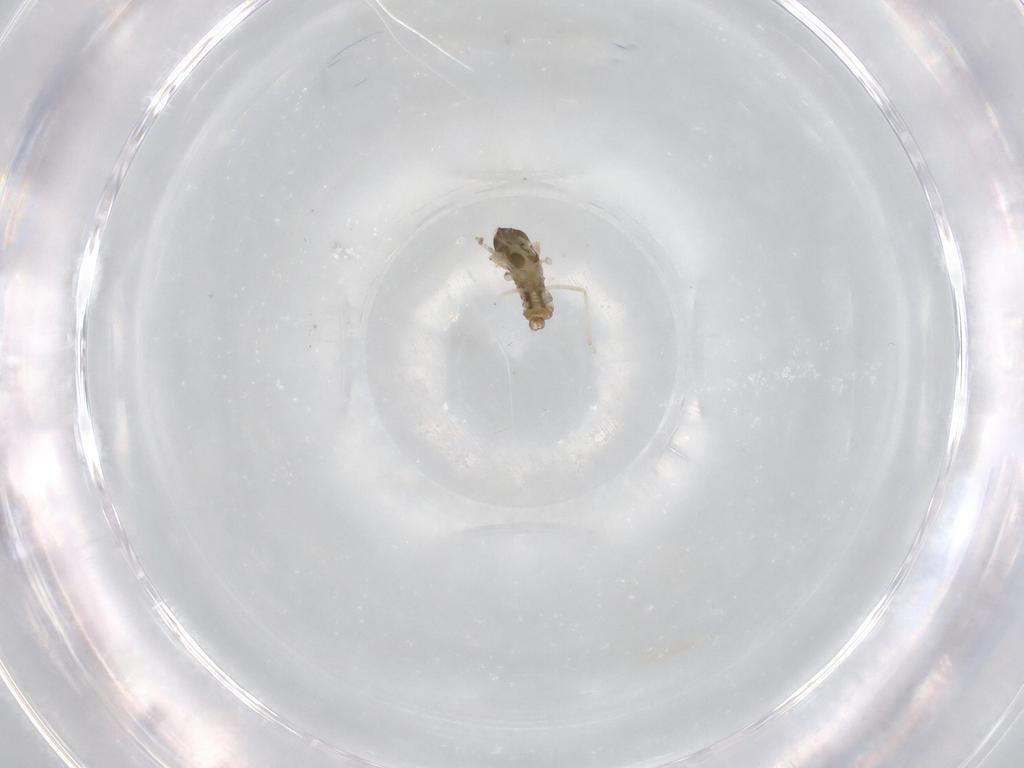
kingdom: Animalia
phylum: Arthropoda
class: Insecta
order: Diptera
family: Cecidomyiidae
